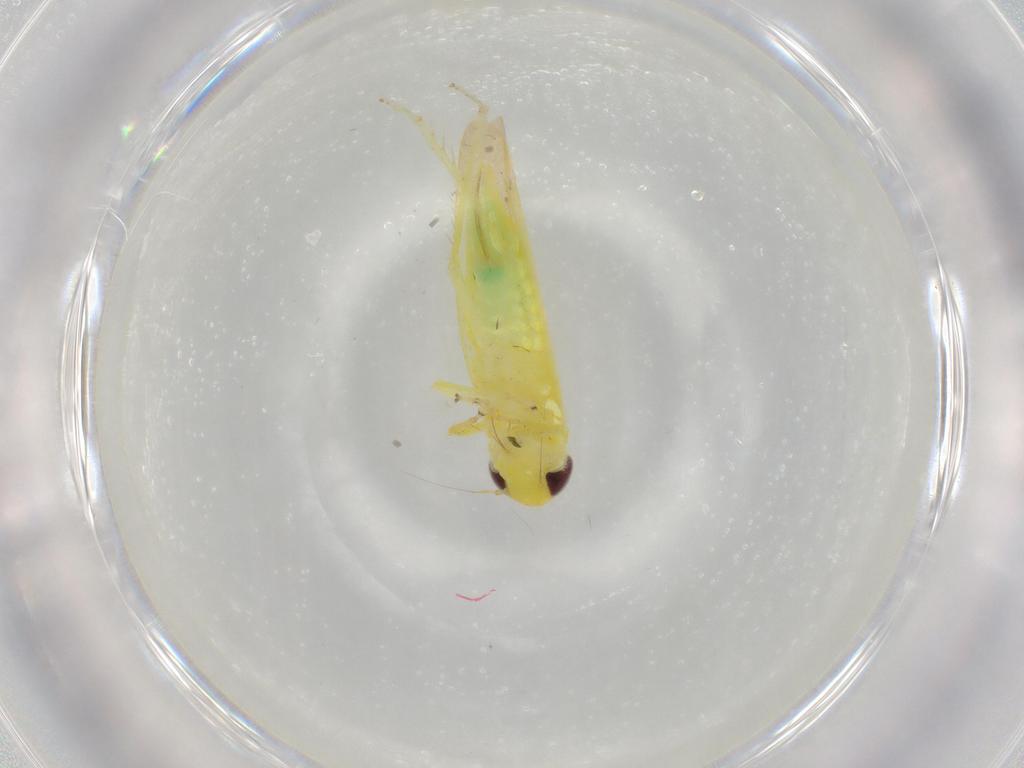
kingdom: Animalia
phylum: Arthropoda
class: Insecta
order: Hemiptera
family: Cicadellidae
